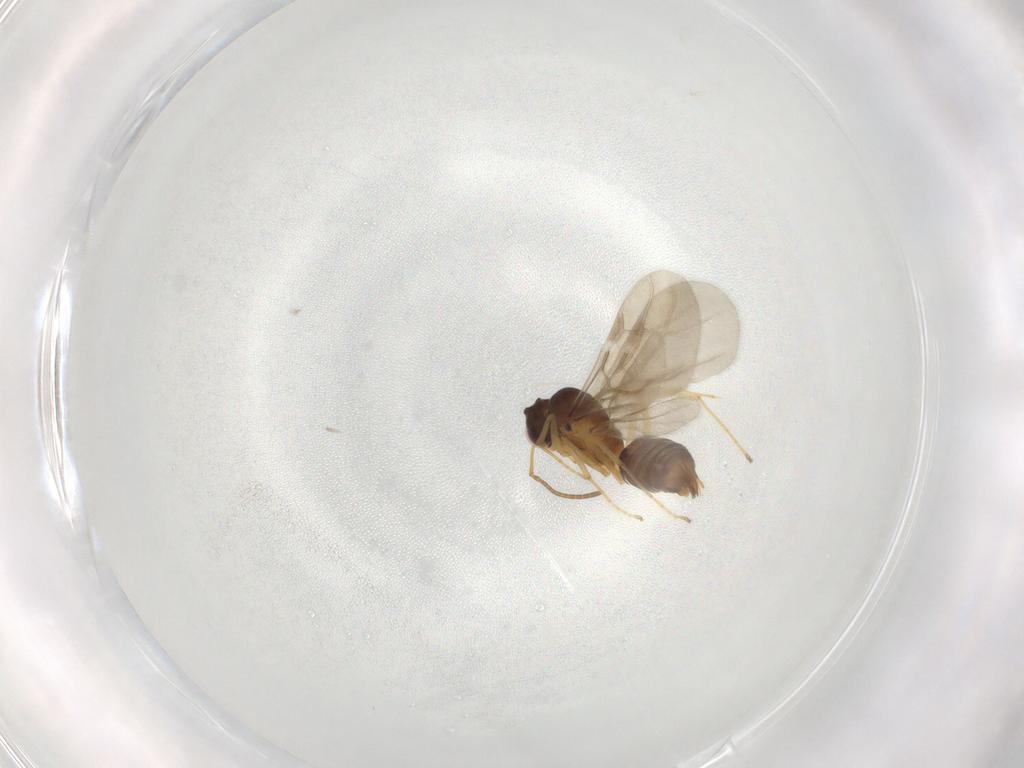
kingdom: Animalia
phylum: Arthropoda
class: Insecta
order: Hymenoptera
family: Formicidae
